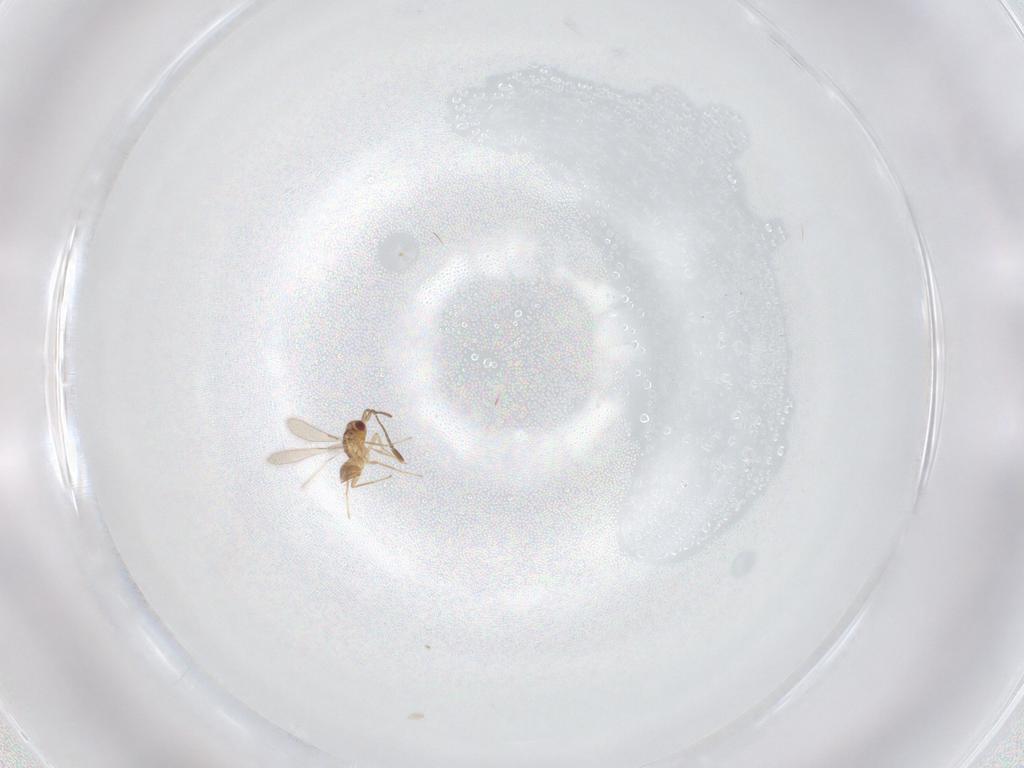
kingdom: Animalia
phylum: Arthropoda
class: Insecta
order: Hymenoptera
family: Mymaridae
